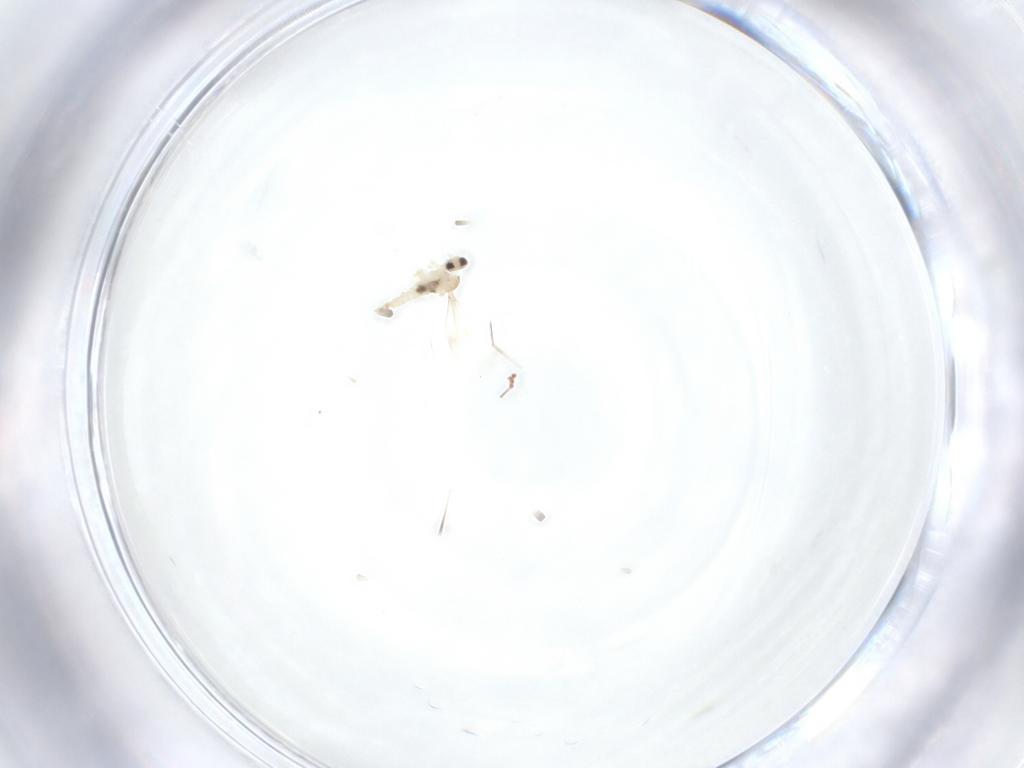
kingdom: Animalia
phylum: Arthropoda
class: Insecta
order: Diptera
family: Cecidomyiidae
